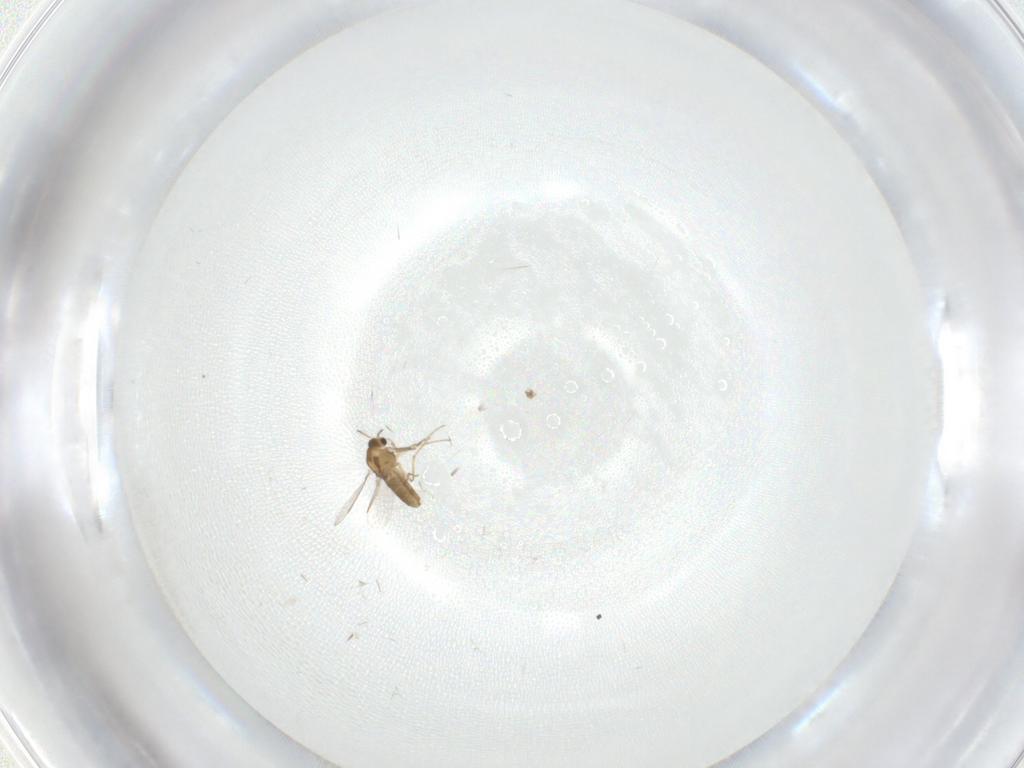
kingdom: Animalia
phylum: Arthropoda
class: Insecta
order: Diptera
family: Chironomidae
